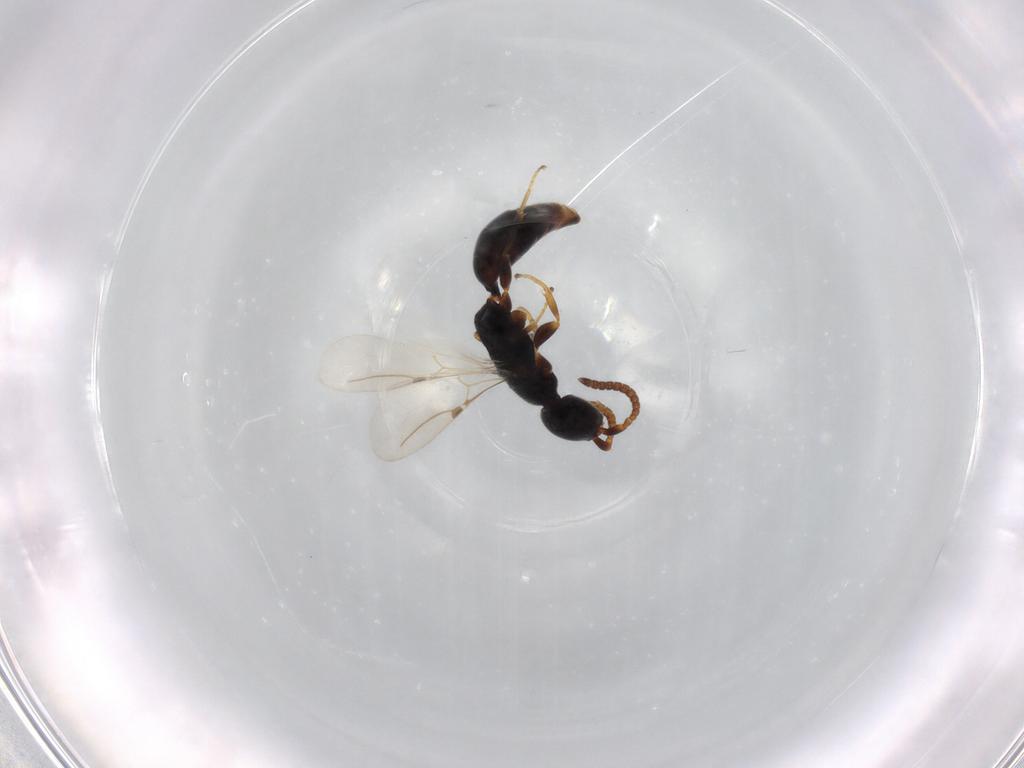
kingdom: Animalia
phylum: Arthropoda
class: Insecta
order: Hymenoptera
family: Bethylidae
